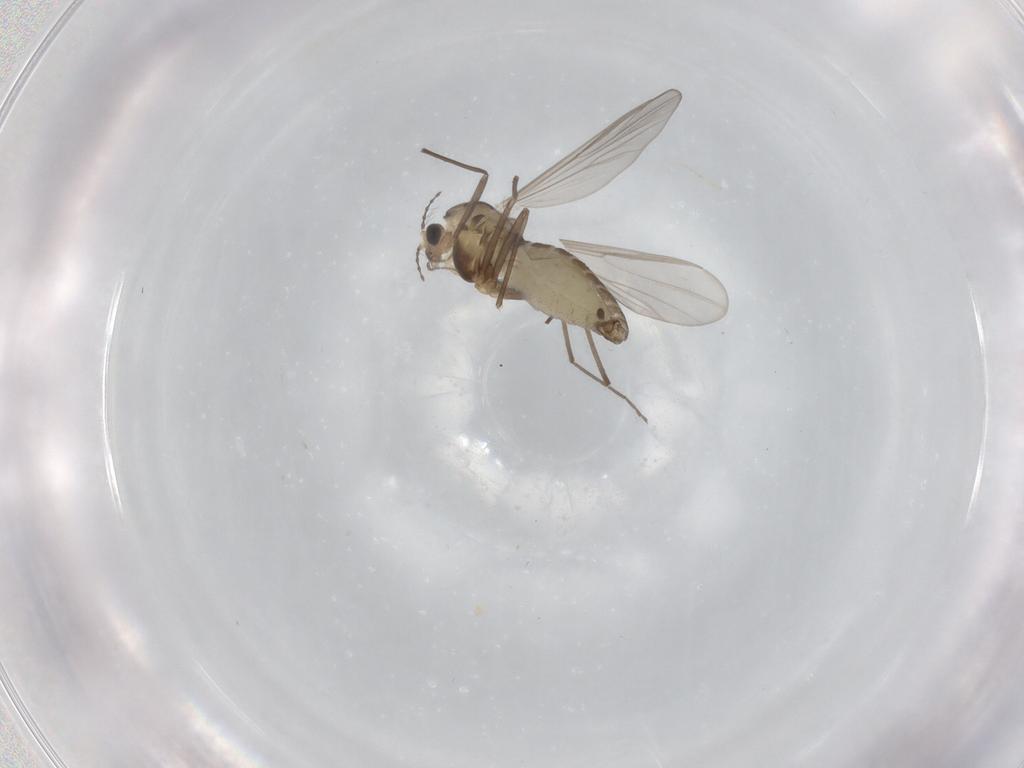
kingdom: Animalia
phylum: Arthropoda
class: Insecta
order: Diptera
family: Chironomidae
